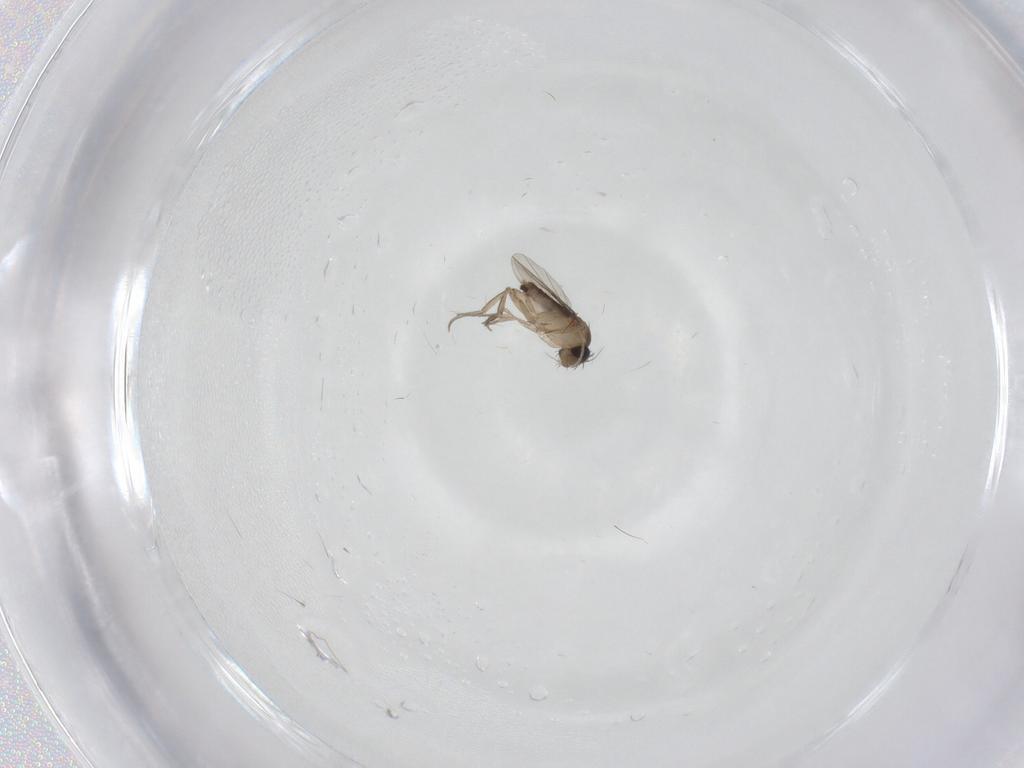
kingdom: Animalia
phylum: Arthropoda
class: Insecta
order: Diptera
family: Phoridae
